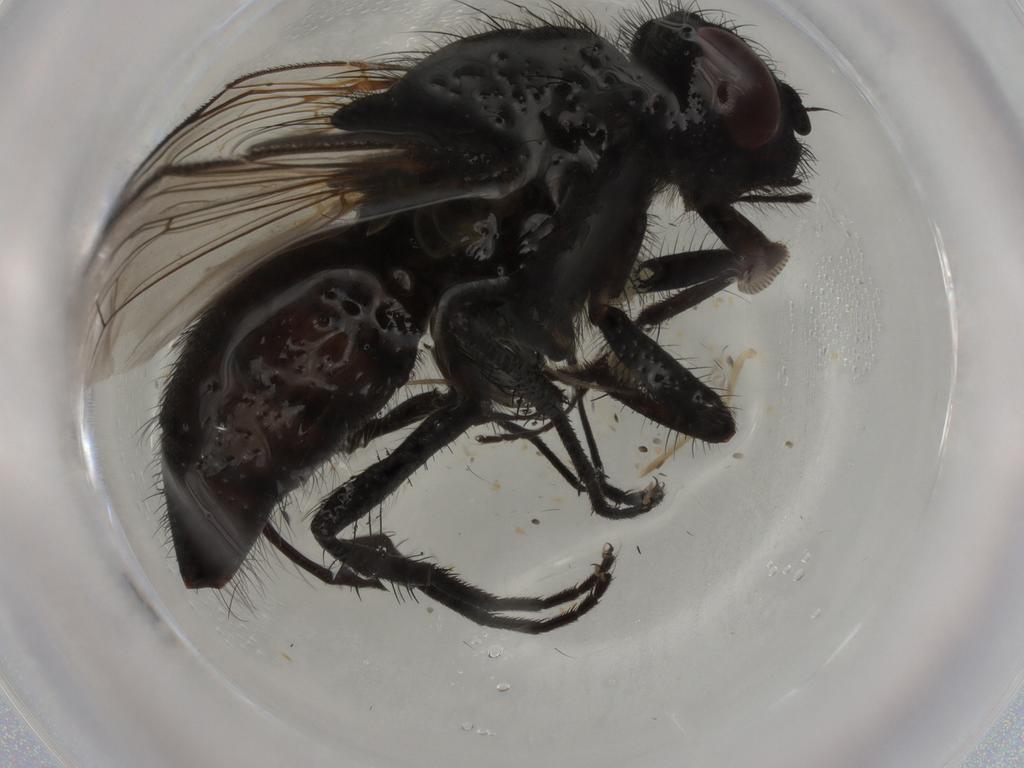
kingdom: Animalia
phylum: Arthropoda
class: Insecta
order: Diptera
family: Muscidae
